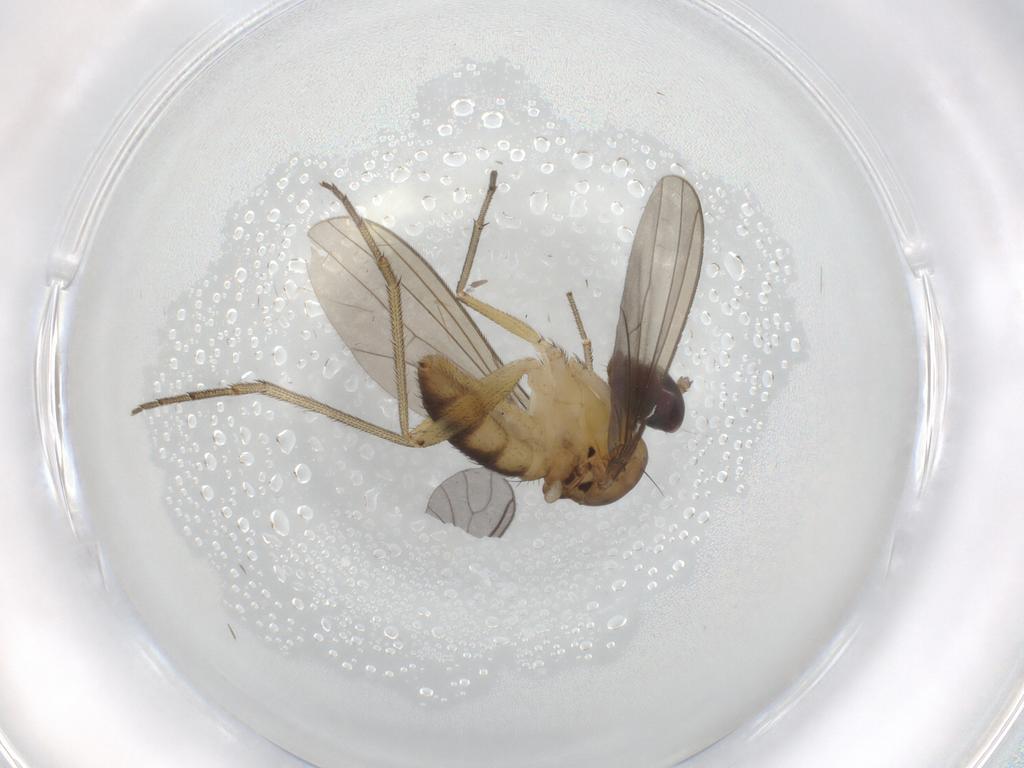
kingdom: Animalia
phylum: Arthropoda
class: Insecta
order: Diptera
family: Dolichopodidae
